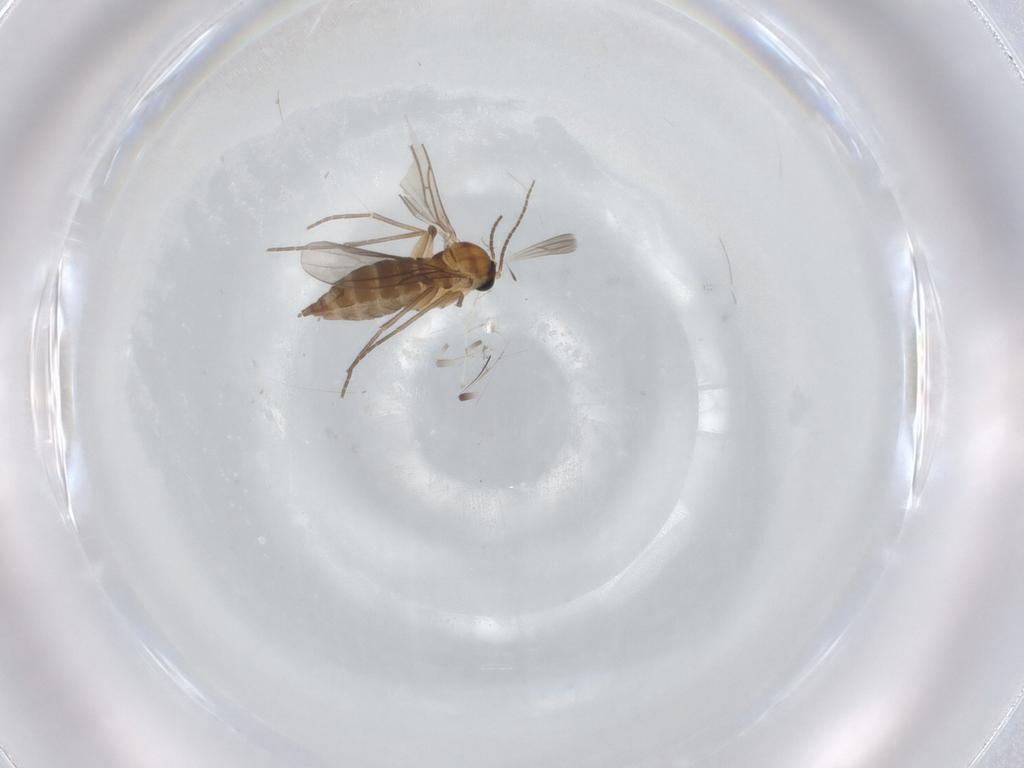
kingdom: Animalia
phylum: Arthropoda
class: Insecta
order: Diptera
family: Sciaridae
